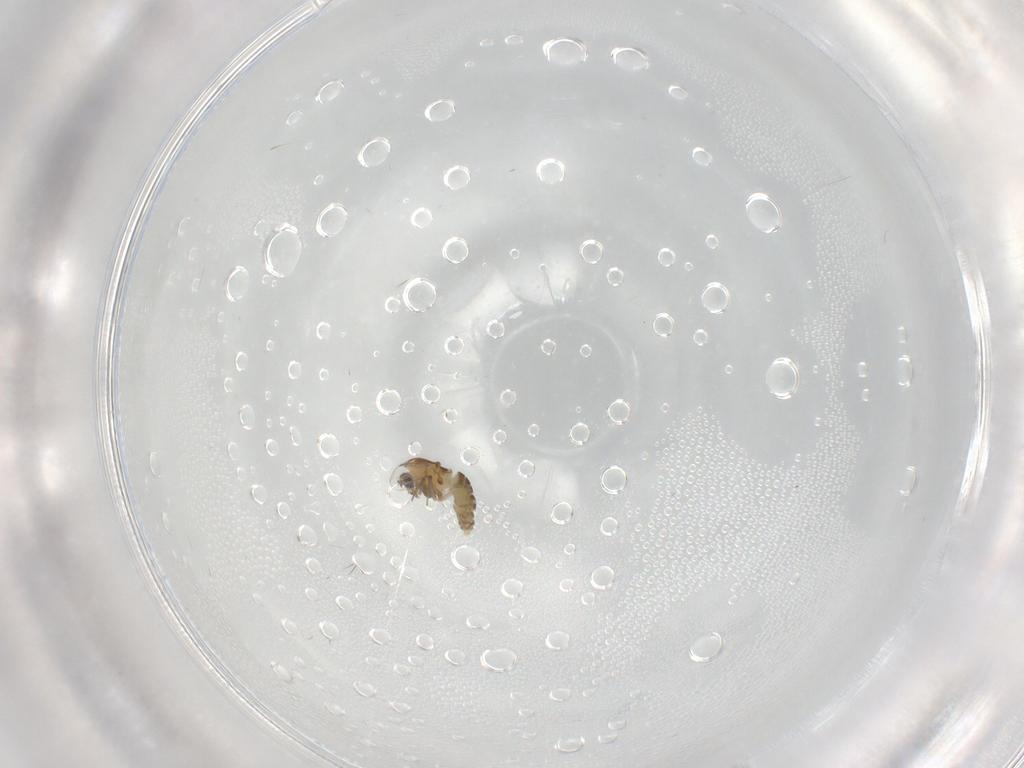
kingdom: Animalia
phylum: Arthropoda
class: Insecta
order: Diptera
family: Chironomidae
